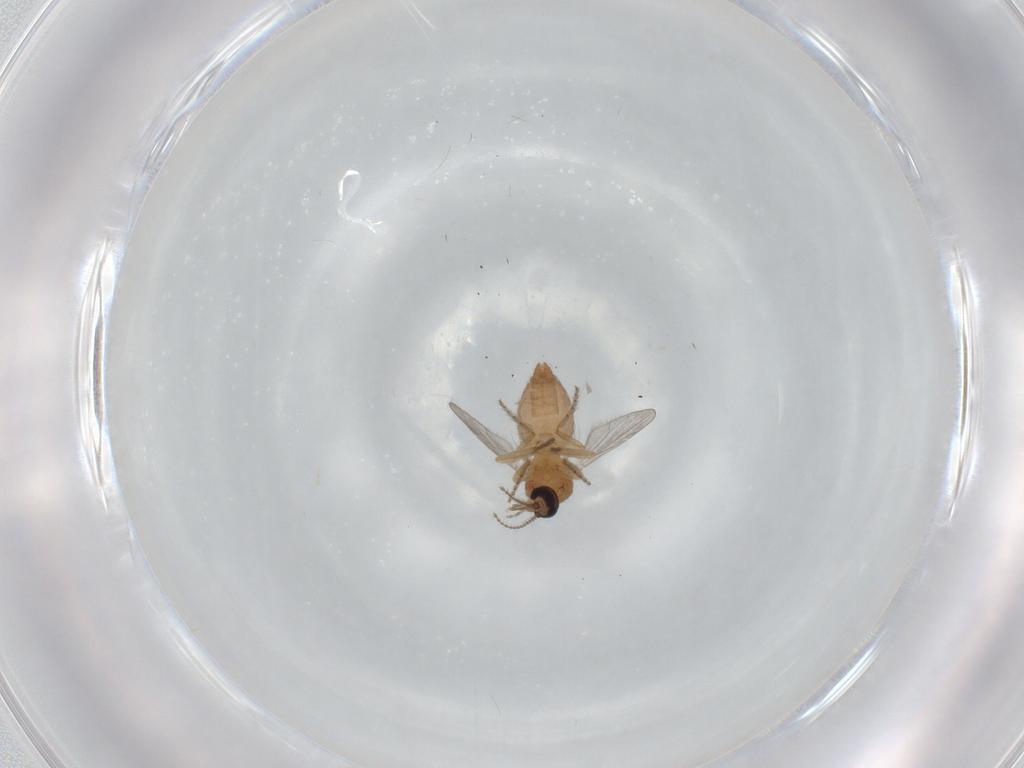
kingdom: Animalia
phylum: Arthropoda
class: Insecta
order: Diptera
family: Ceratopogonidae
